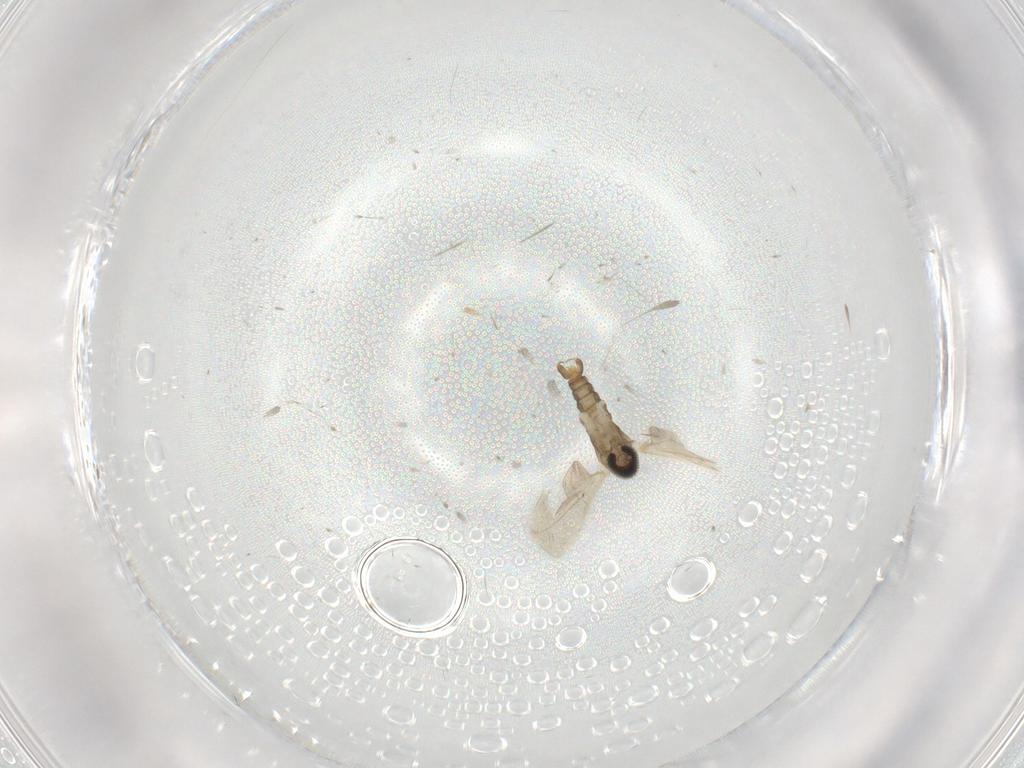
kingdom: Animalia
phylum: Arthropoda
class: Insecta
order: Diptera
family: Cecidomyiidae
